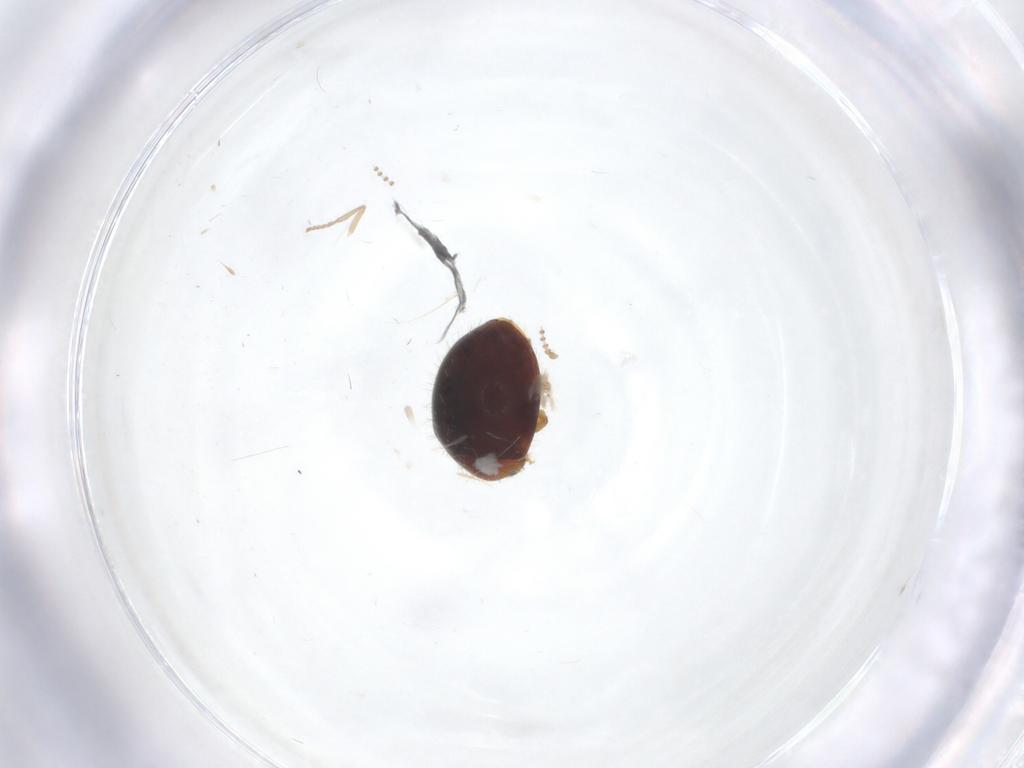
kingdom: Animalia
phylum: Arthropoda
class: Insecta
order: Coleoptera
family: Coccinellidae
